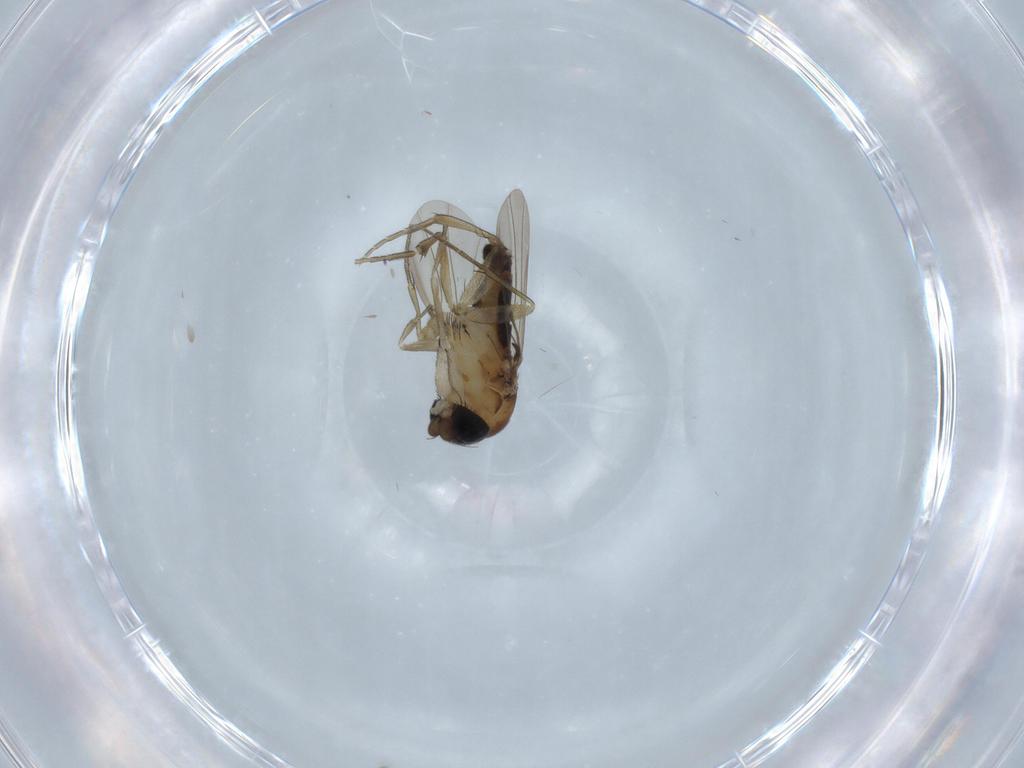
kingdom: Animalia
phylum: Arthropoda
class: Insecta
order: Diptera
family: Phoridae
